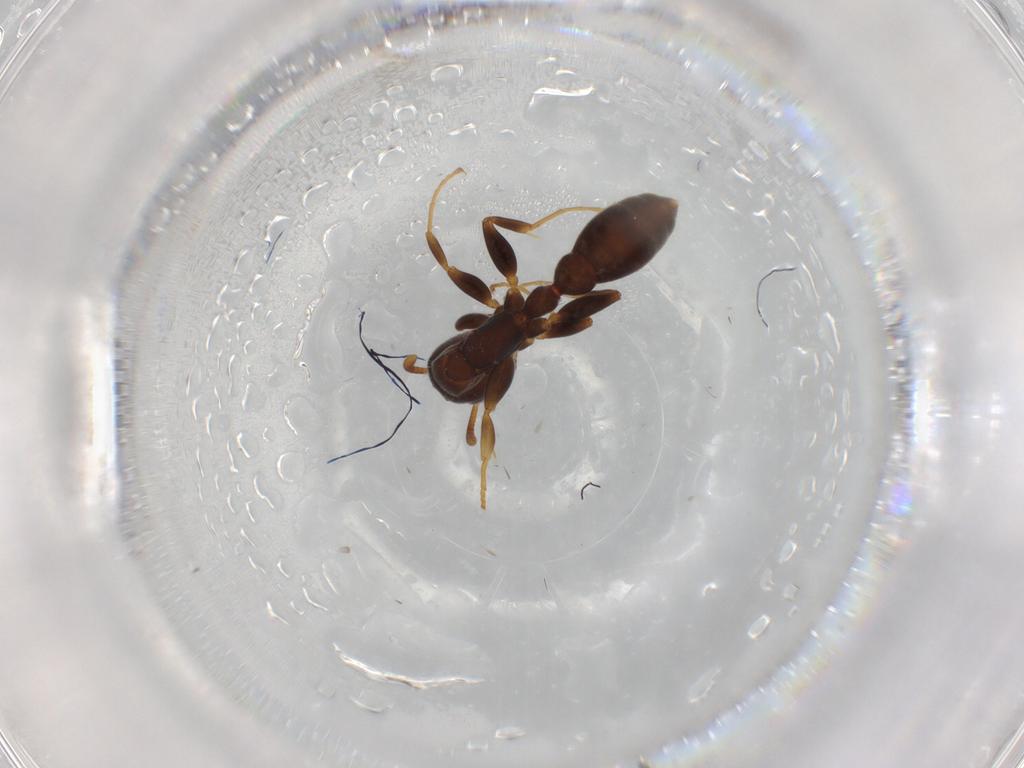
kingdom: Animalia
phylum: Arthropoda
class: Insecta
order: Hymenoptera
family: Formicidae
